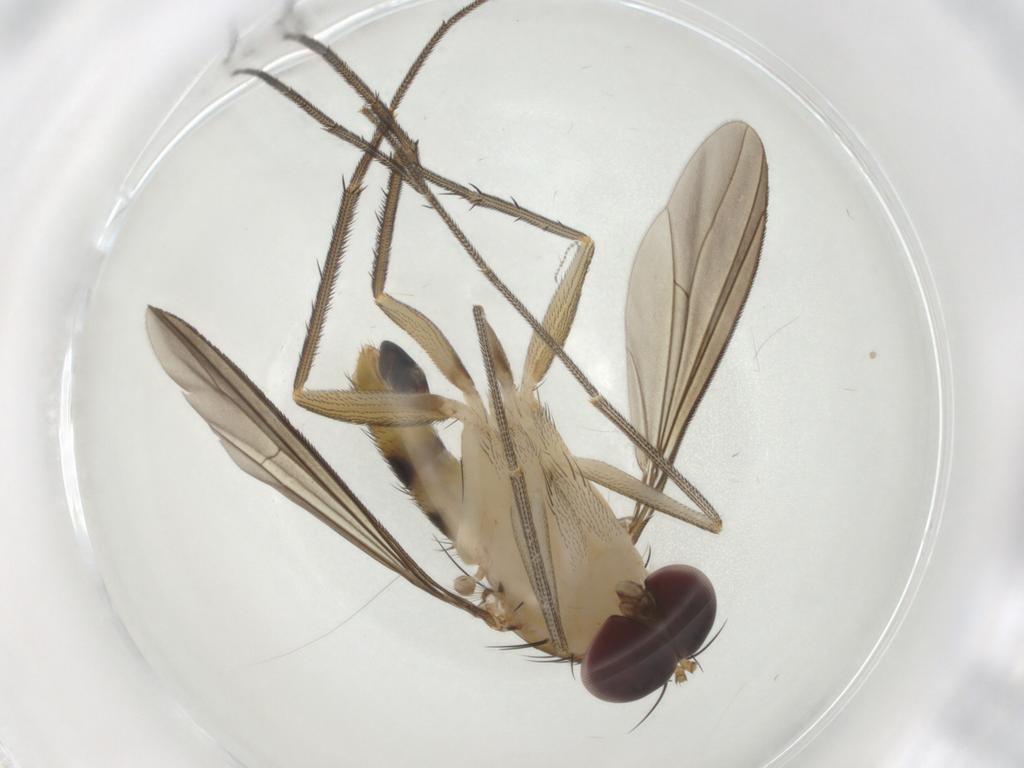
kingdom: Animalia
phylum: Arthropoda
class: Insecta
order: Diptera
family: Dolichopodidae
